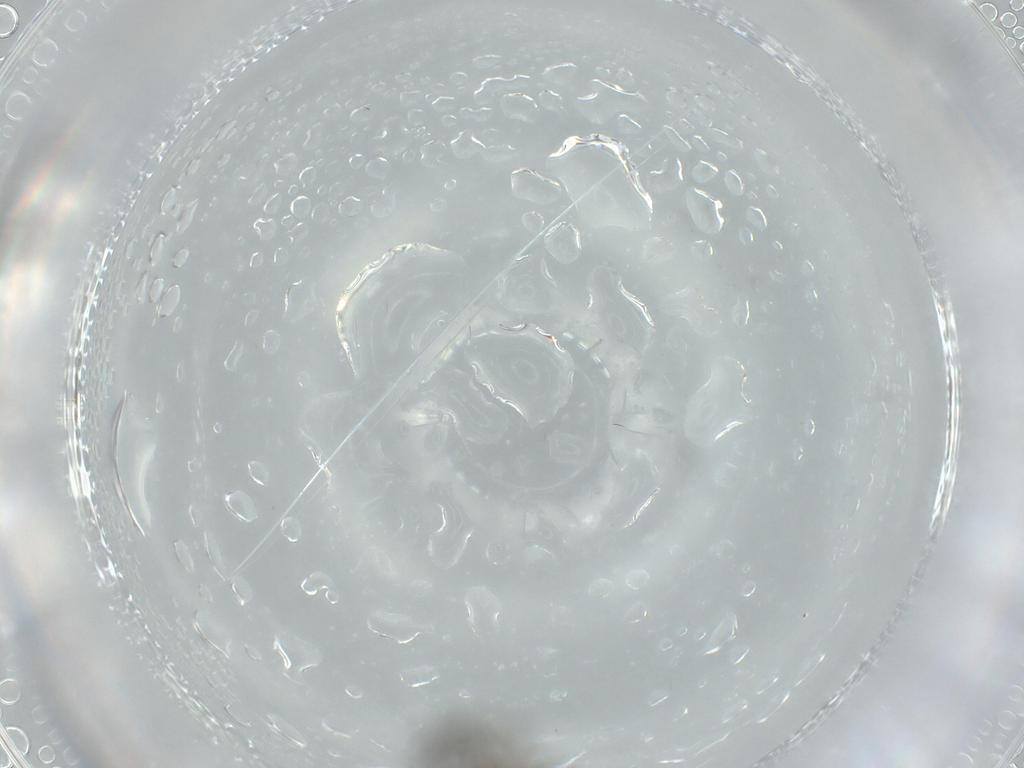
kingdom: Animalia
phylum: Arthropoda
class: Insecta
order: Diptera
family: Sciaridae
